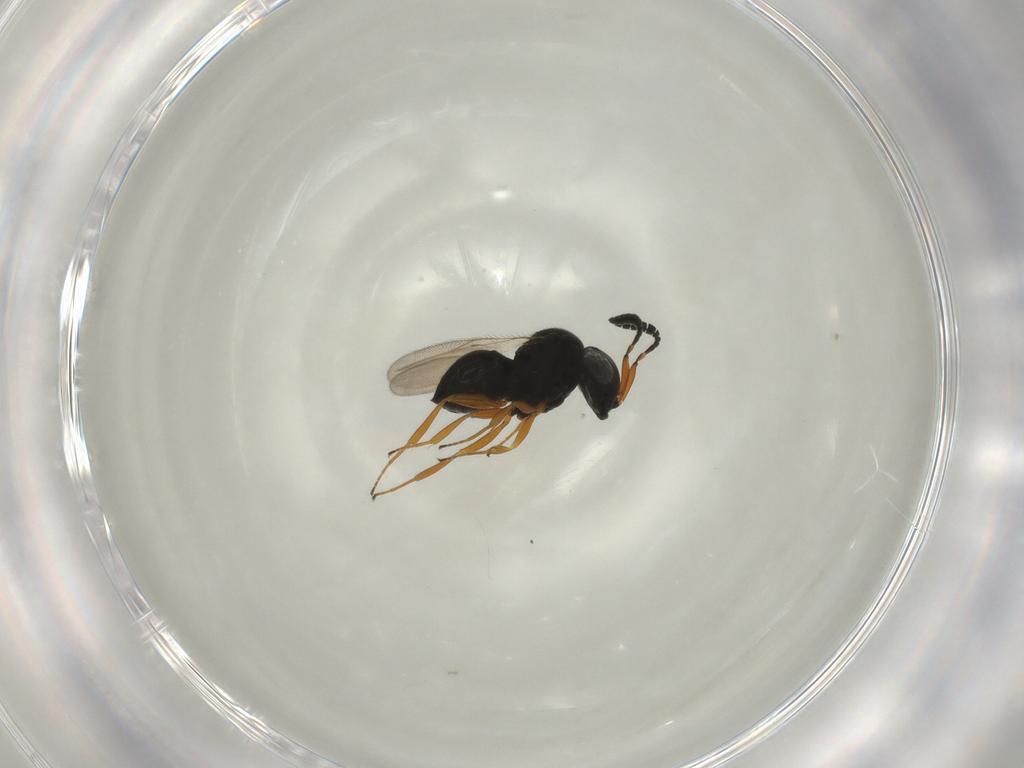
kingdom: Animalia
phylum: Arthropoda
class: Insecta
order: Hymenoptera
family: Scelionidae
